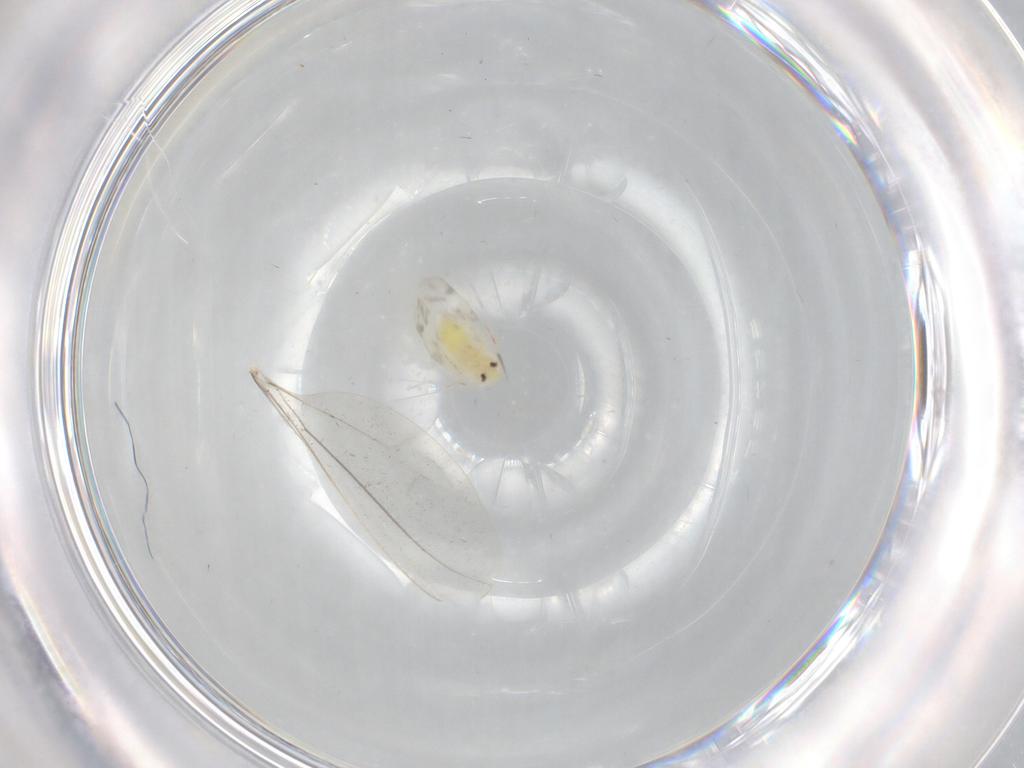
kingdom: Animalia
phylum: Arthropoda
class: Insecta
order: Hemiptera
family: Aleyrodidae
